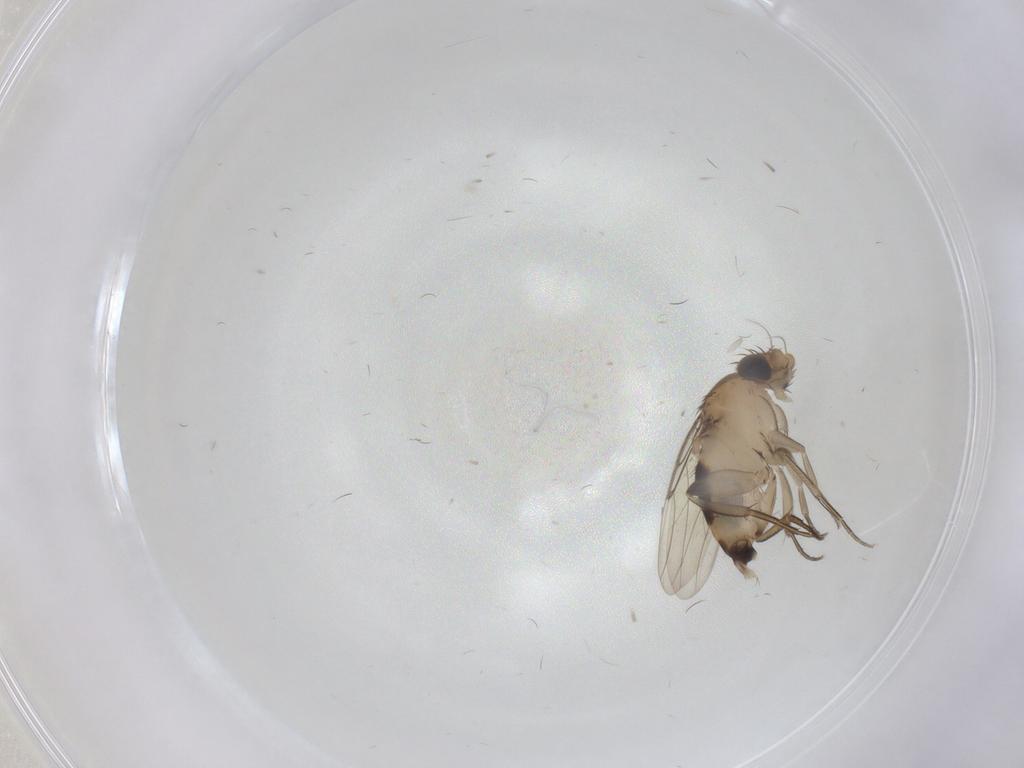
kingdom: Animalia
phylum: Arthropoda
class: Insecta
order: Diptera
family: Phoridae
